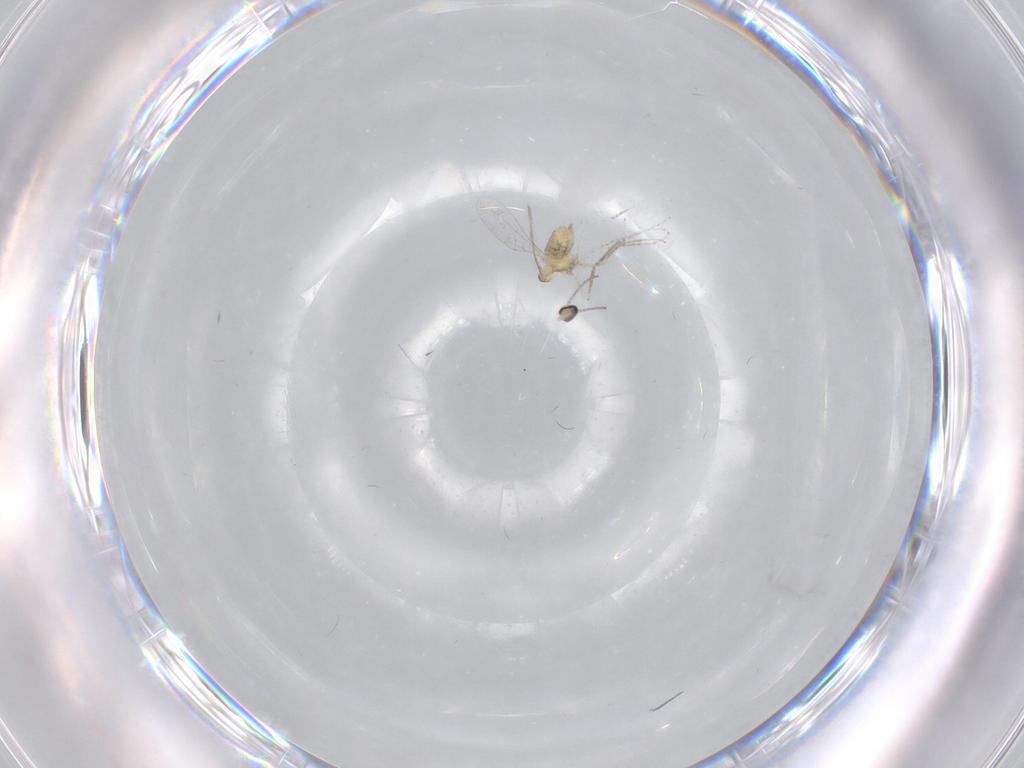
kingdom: Animalia
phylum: Arthropoda
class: Insecta
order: Diptera
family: Cecidomyiidae
